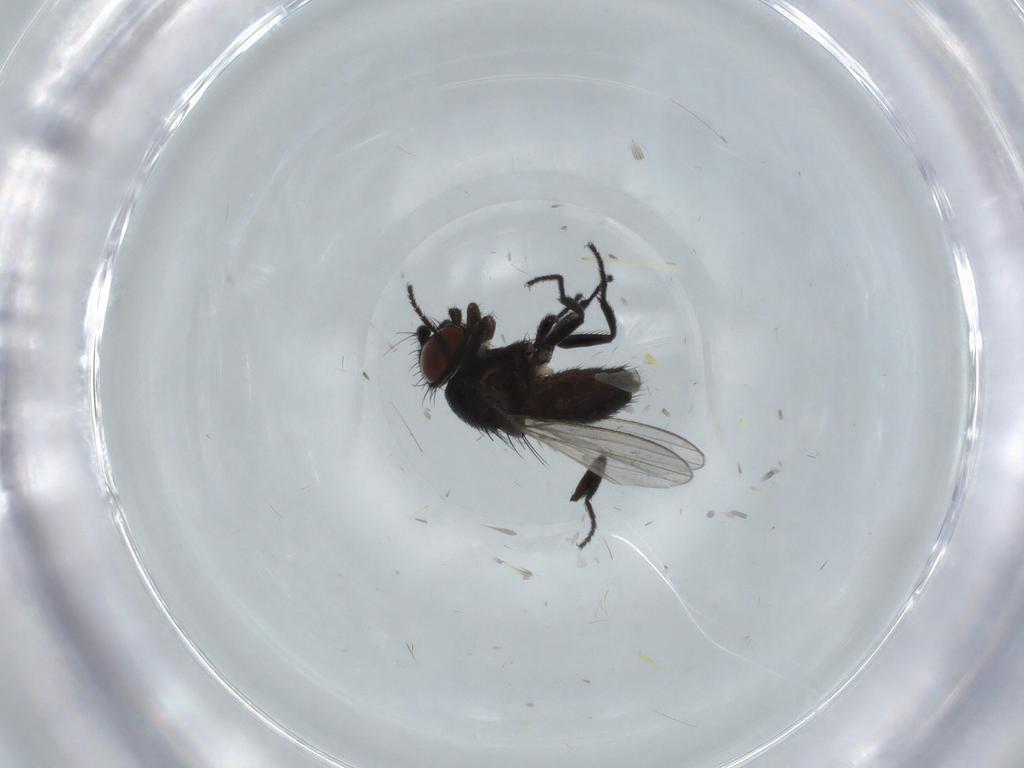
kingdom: Animalia
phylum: Arthropoda
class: Insecta
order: Diptera
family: Milichiidae
